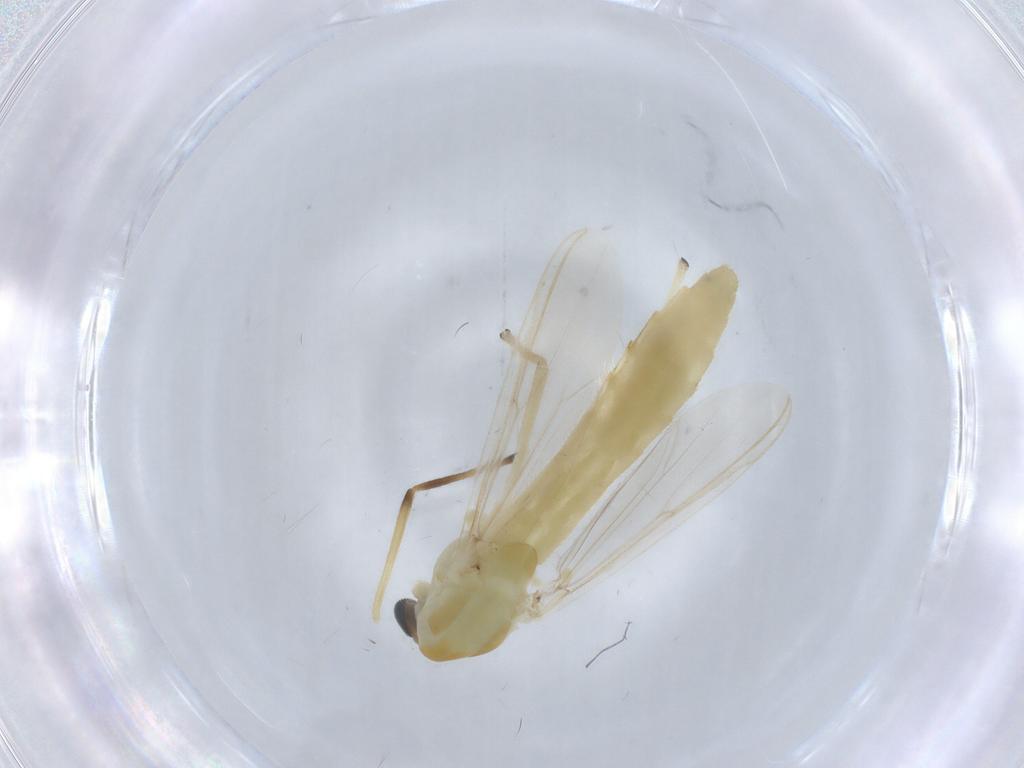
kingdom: Animalia
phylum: Arthropoda
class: Insecta
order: Diptera
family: Chironomidae
